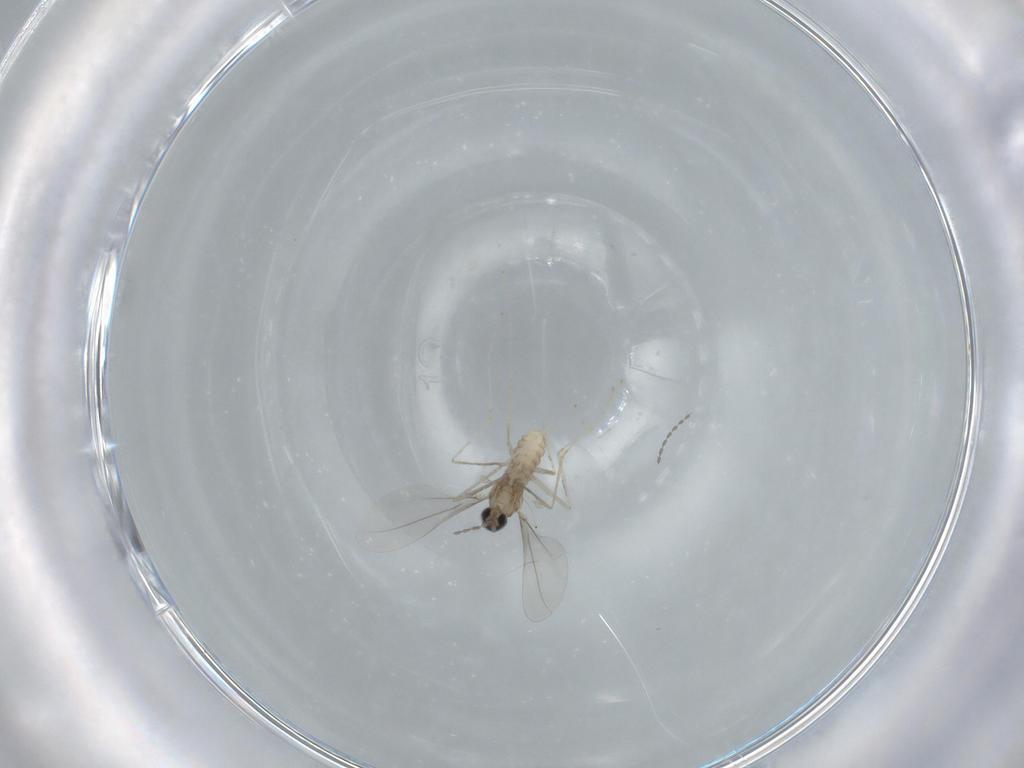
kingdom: Animalia
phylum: Arthropoda
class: Insecta
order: Diptera
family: Cecidomyiidae
